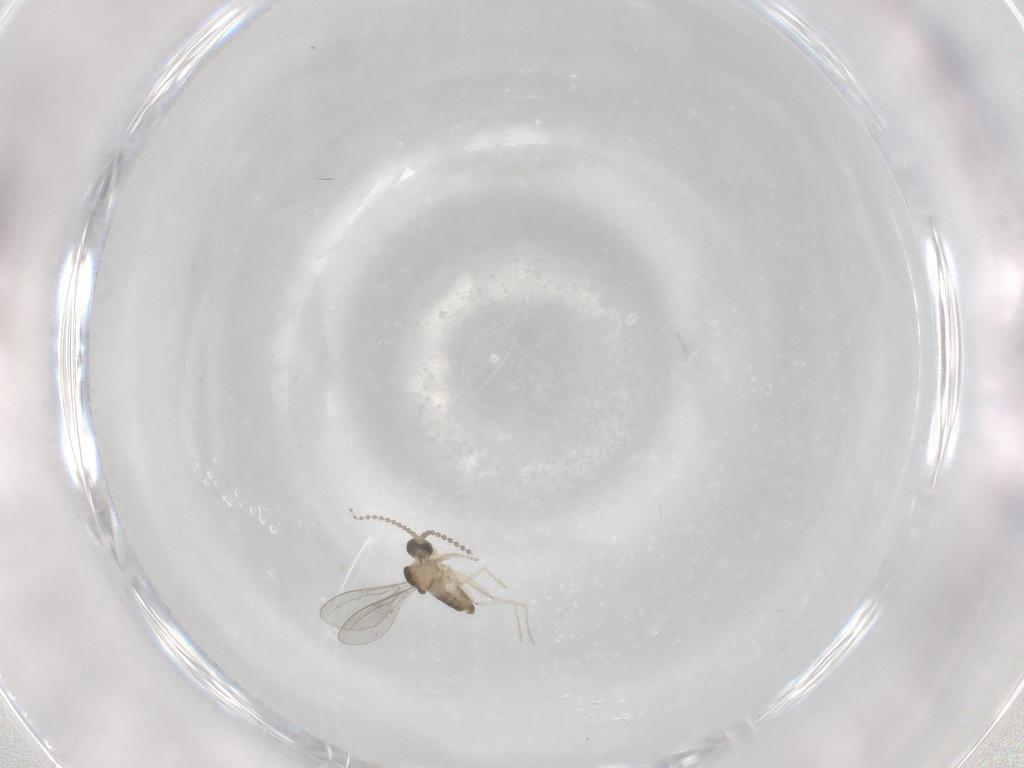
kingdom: Animalia
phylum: Arthropoda
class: Insecta
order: Diptera
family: Cecidomyiidae
